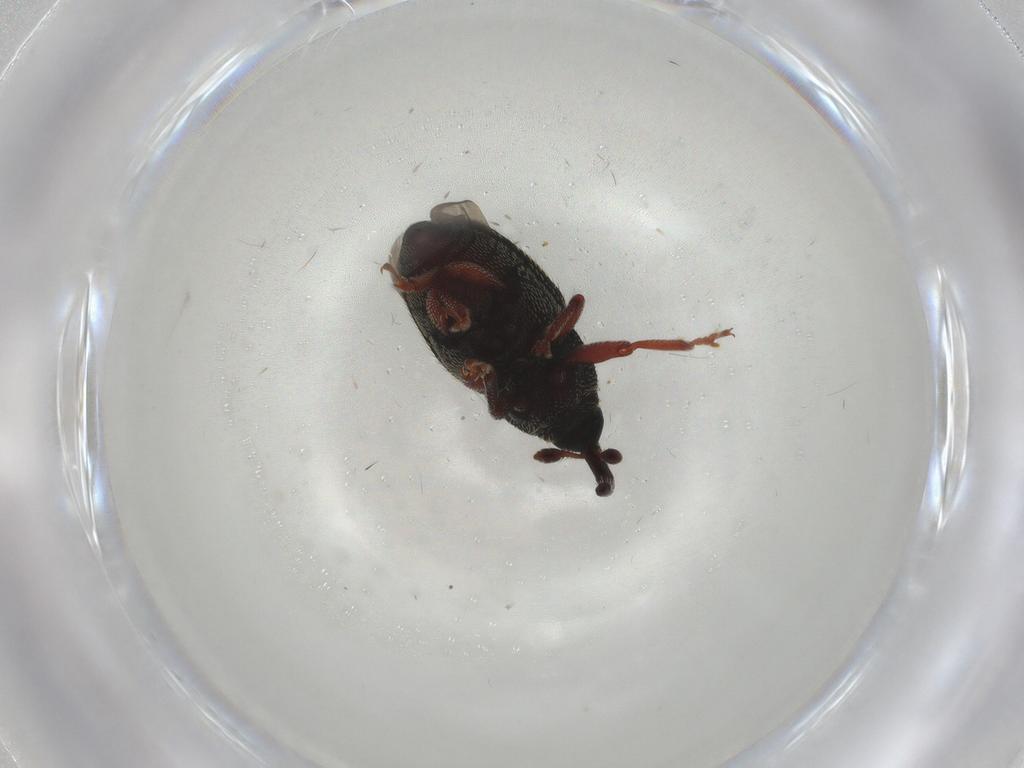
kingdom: Animalia
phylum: Arthropoda
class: Insecta
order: Coleoptera
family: Curculionidae
